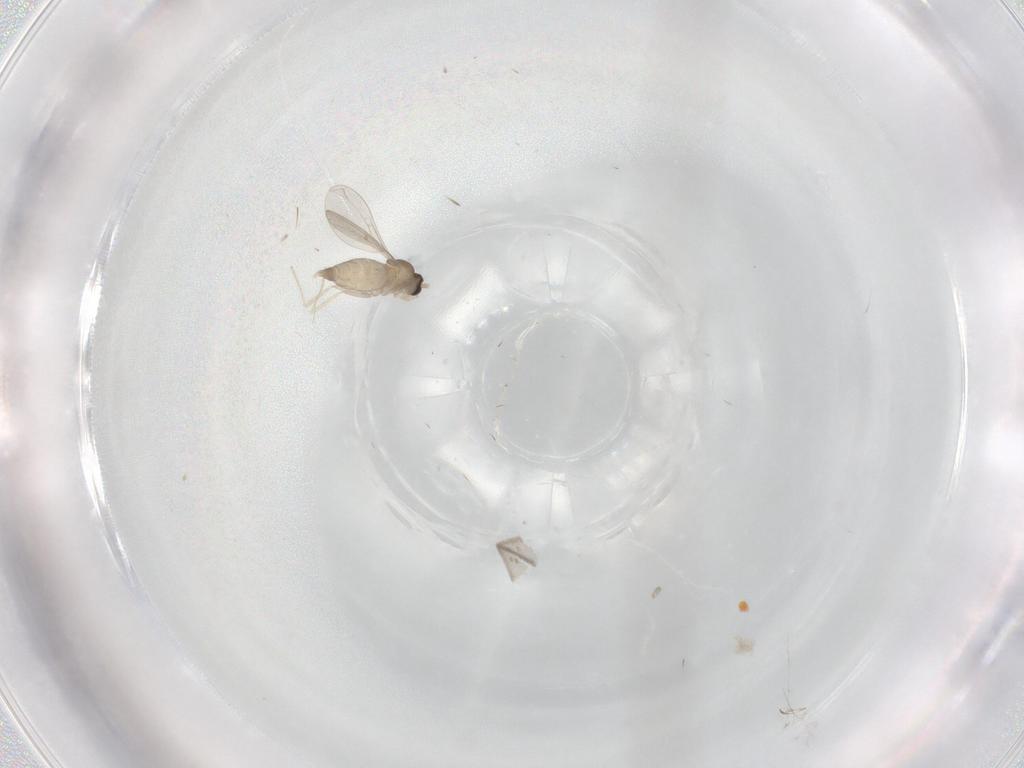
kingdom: Animalia
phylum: Arthropoda
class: Insecta
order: Diptera
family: Cecidomyiidae
